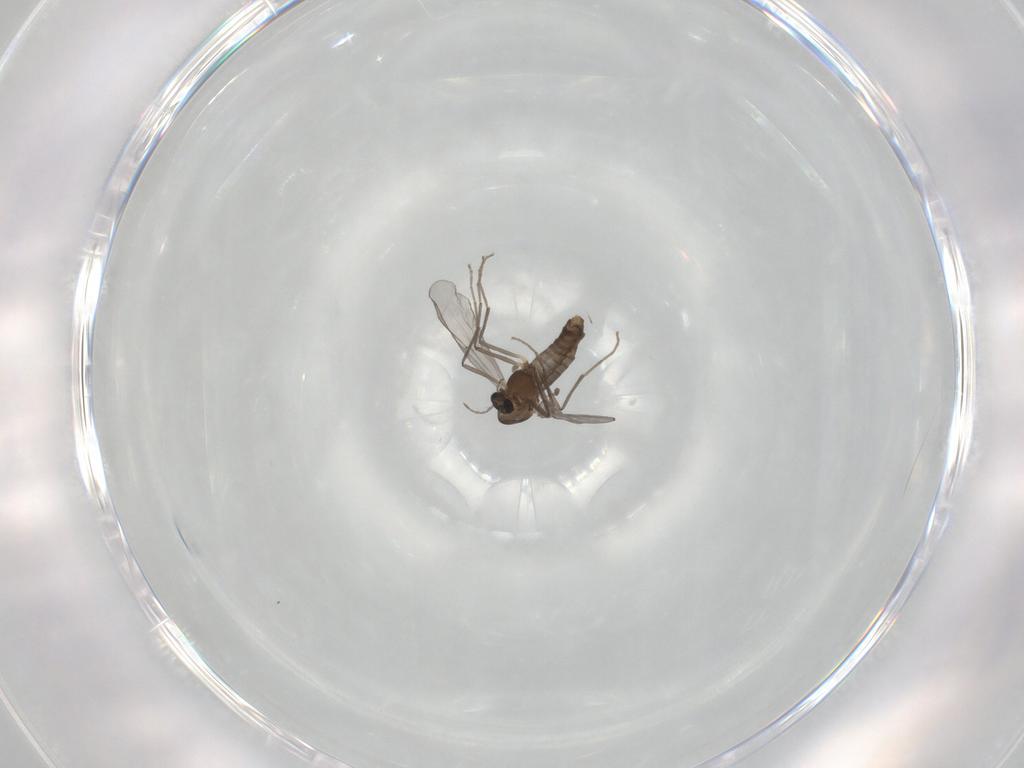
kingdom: Animalia
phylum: Arthropoda
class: Insecta
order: Diptera
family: Chironomidae
